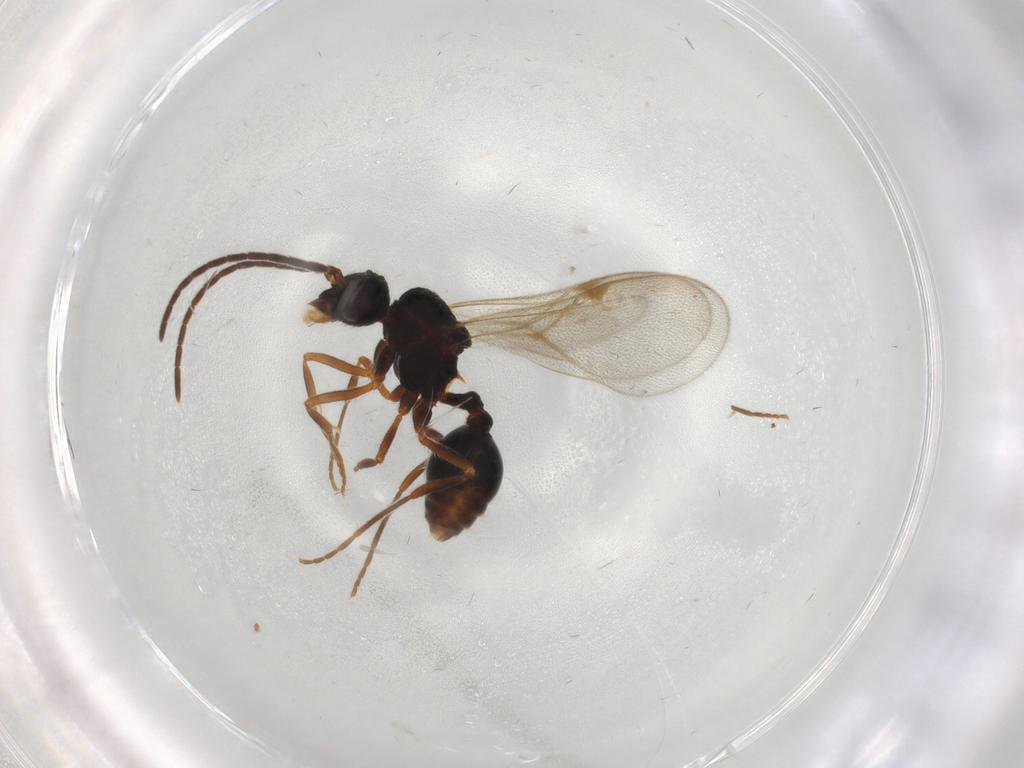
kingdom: Animalia
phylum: Arthropoda
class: Insecta
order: Hymenoptera
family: Formicidae
